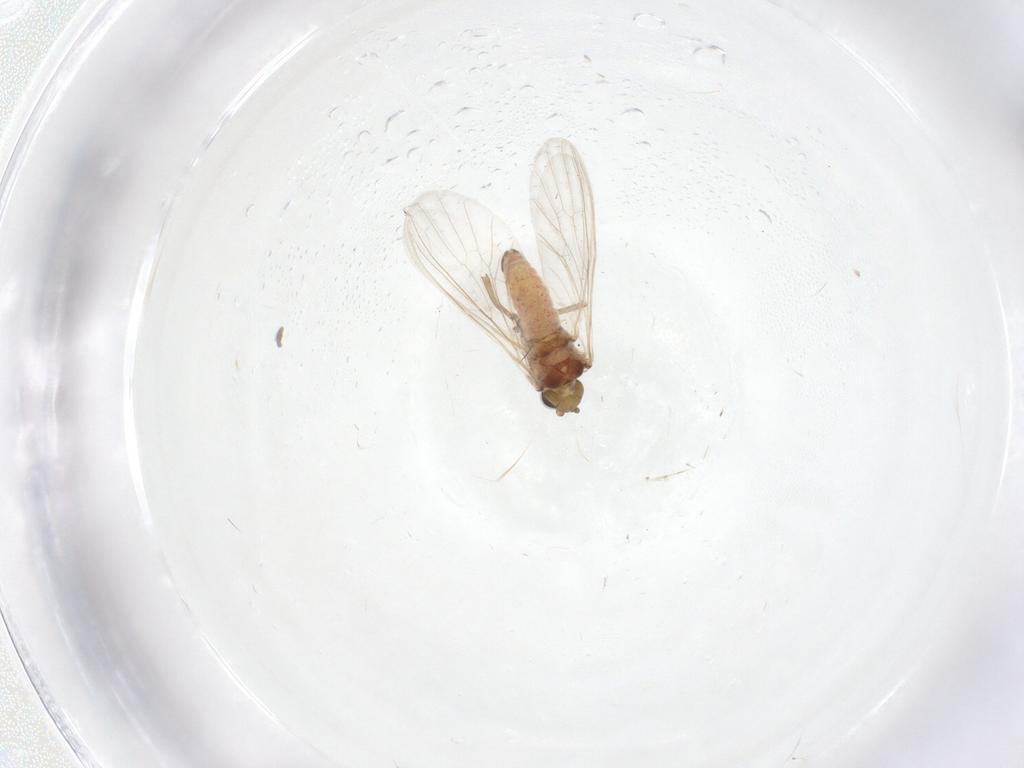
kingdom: Animalia
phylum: Arthropoda
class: Insecta
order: Neuroptera
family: Coniopterygidae
